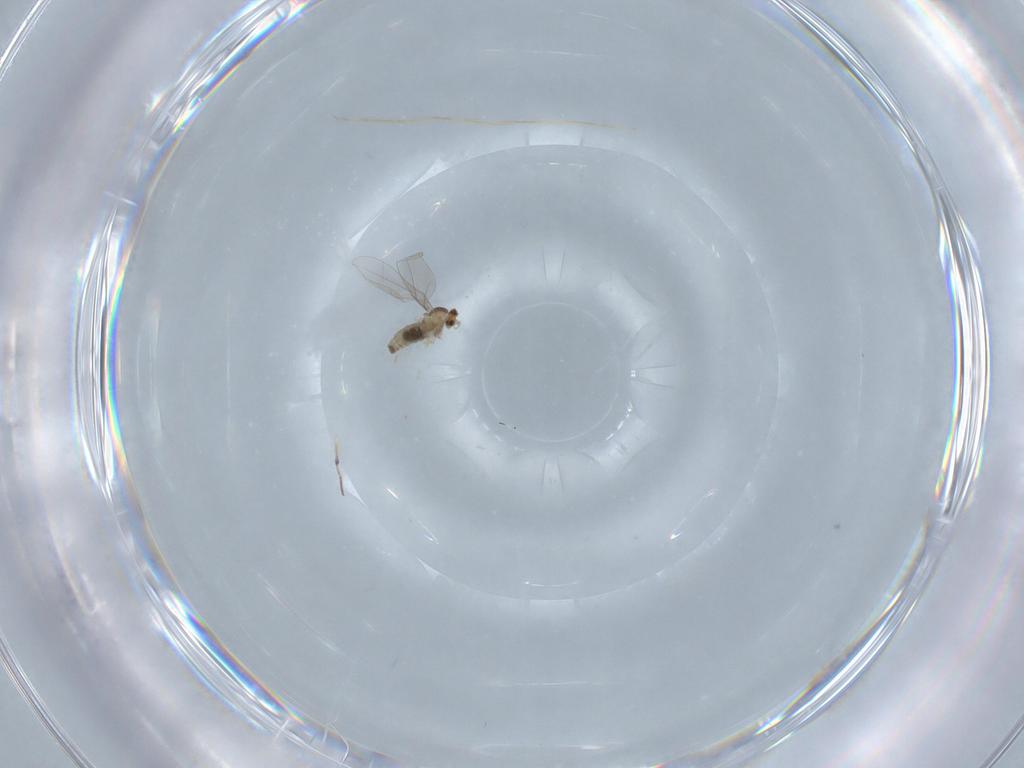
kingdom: Animalia
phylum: Arthropoda
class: Insecta
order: Diptera
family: Cecidomyiidae
